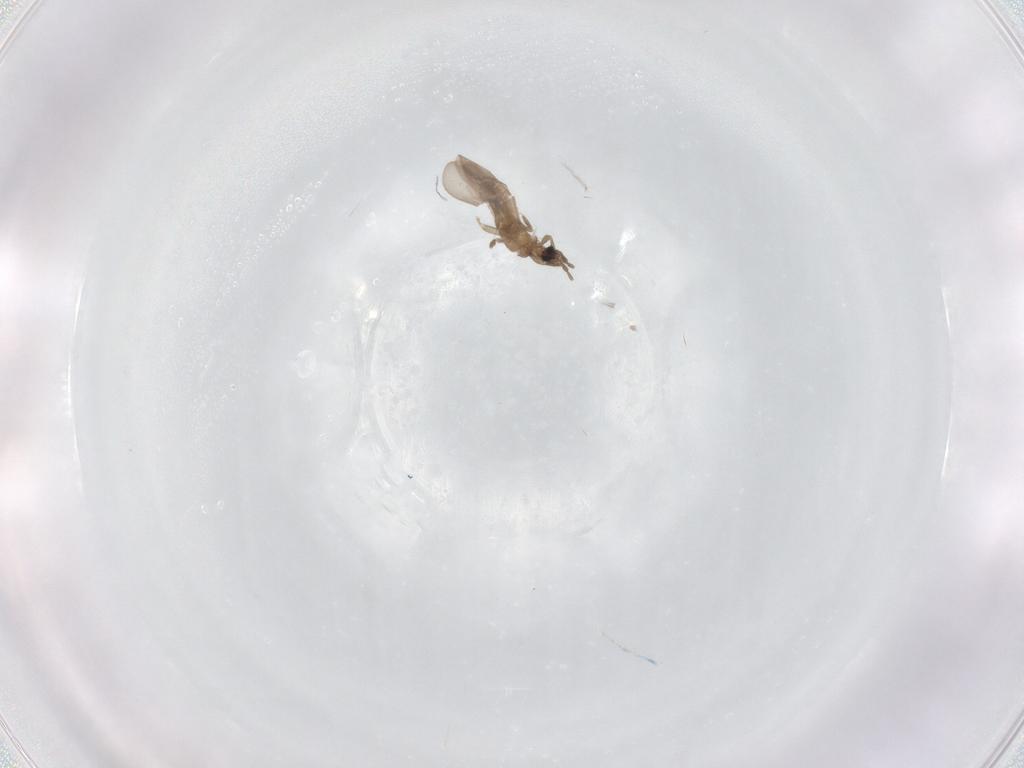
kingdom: Animalia
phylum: Arthropoda
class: Insecta
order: Hemiptera
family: Enicocephalidae
